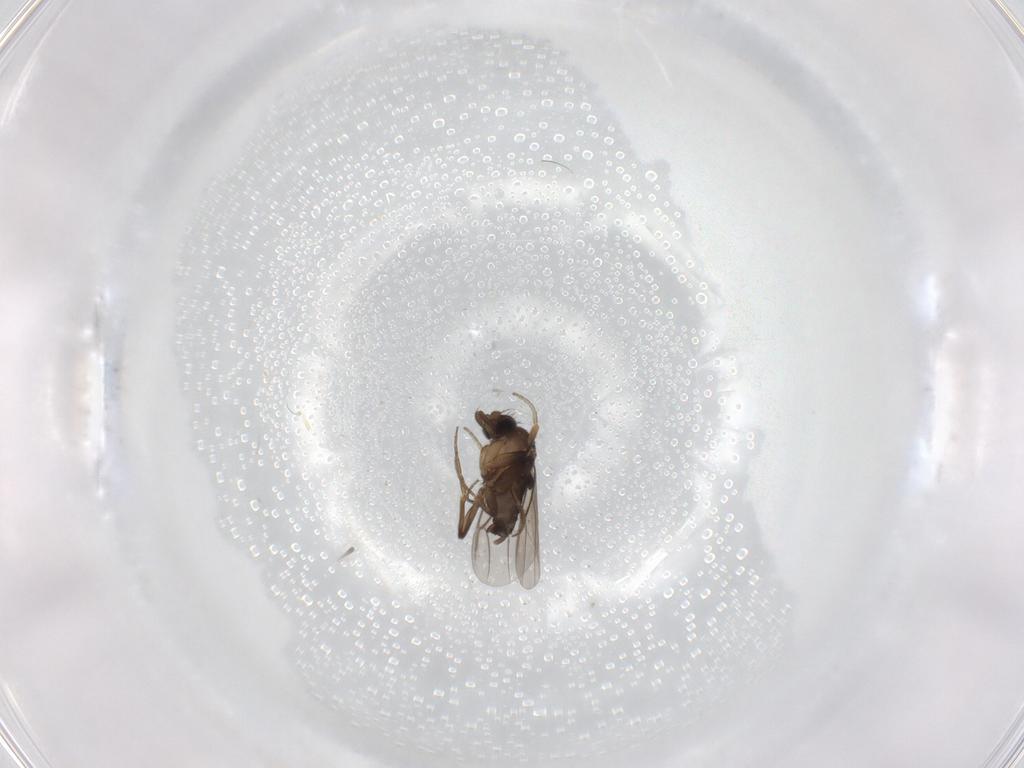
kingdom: Animalia
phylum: Arthropoda
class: Insecta
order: Diptera
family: Phoridae
